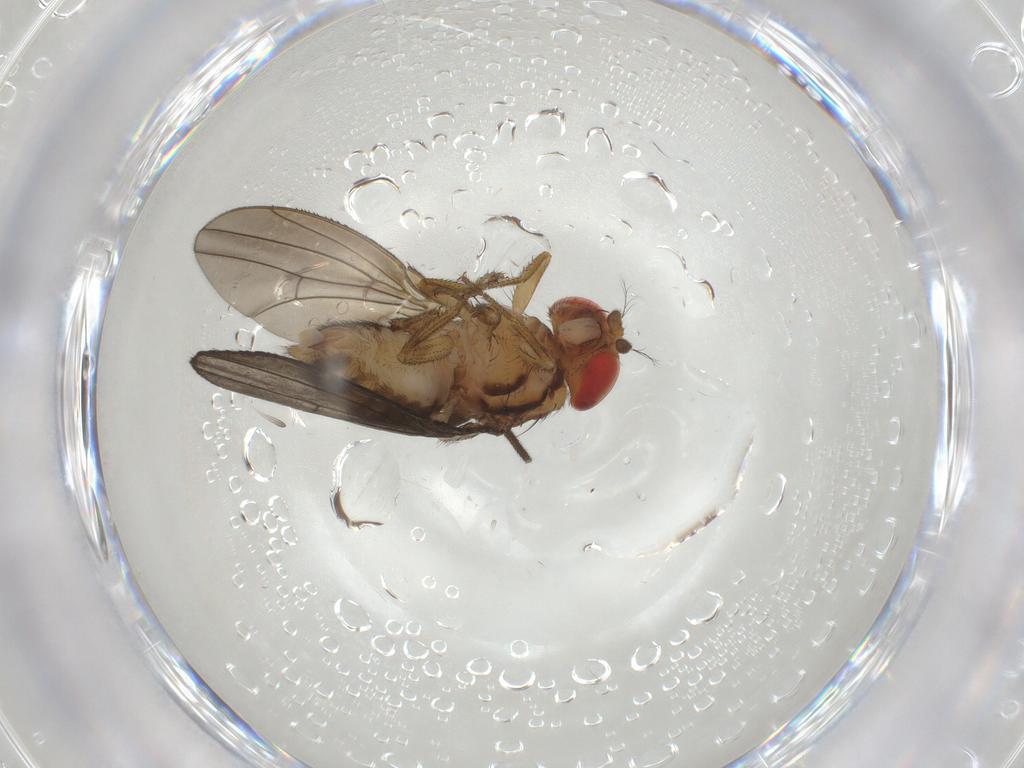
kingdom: Animalia
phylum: Arthropoda
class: Insecta
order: Diptera
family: Drosophilidae
